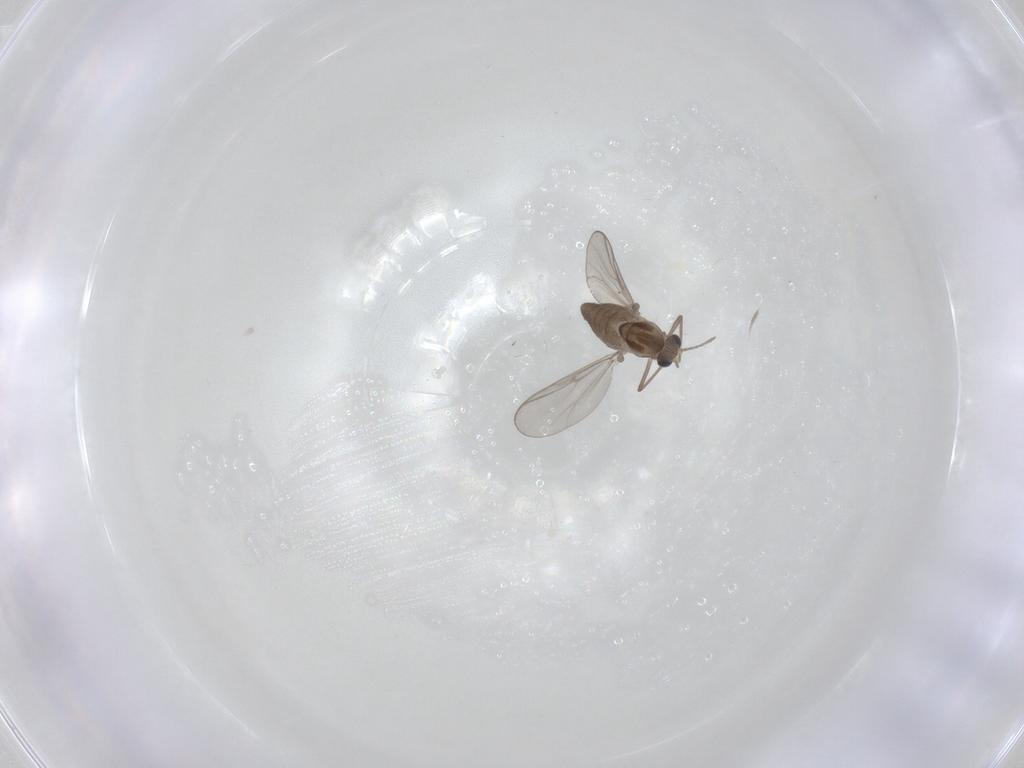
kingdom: Animalia
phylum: Arthropoda
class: Insecta
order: Diptera
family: Chironomidae
